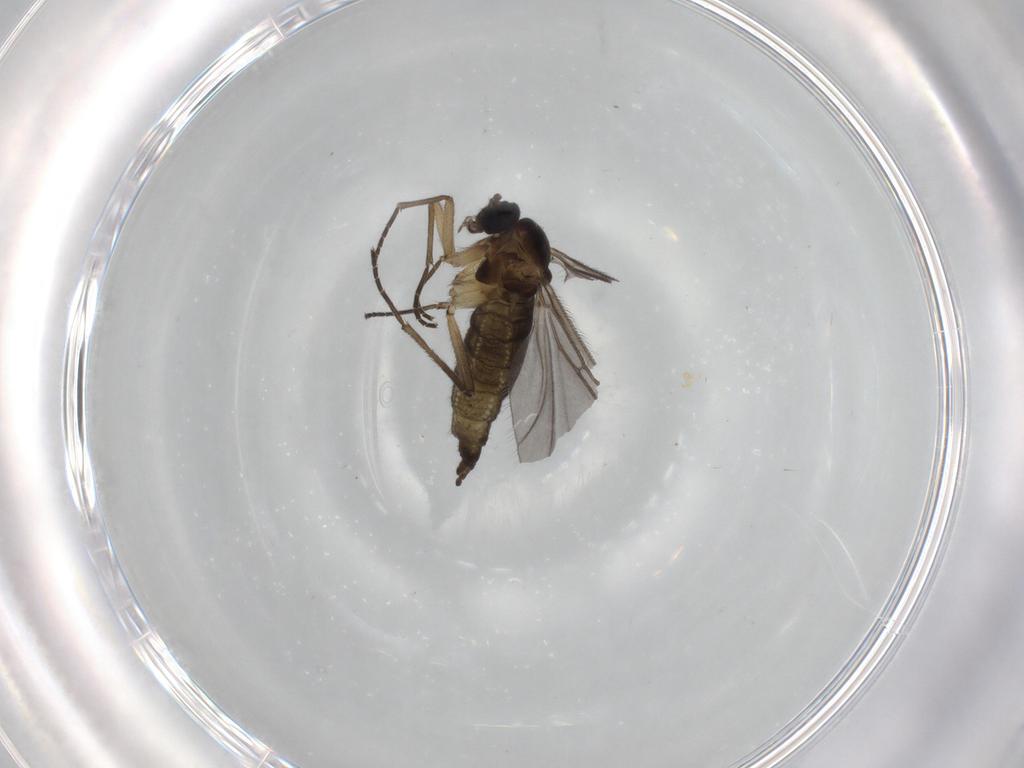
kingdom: Animalia
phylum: Arthropoda
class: Insecta
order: Diptera
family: Sciaridae
